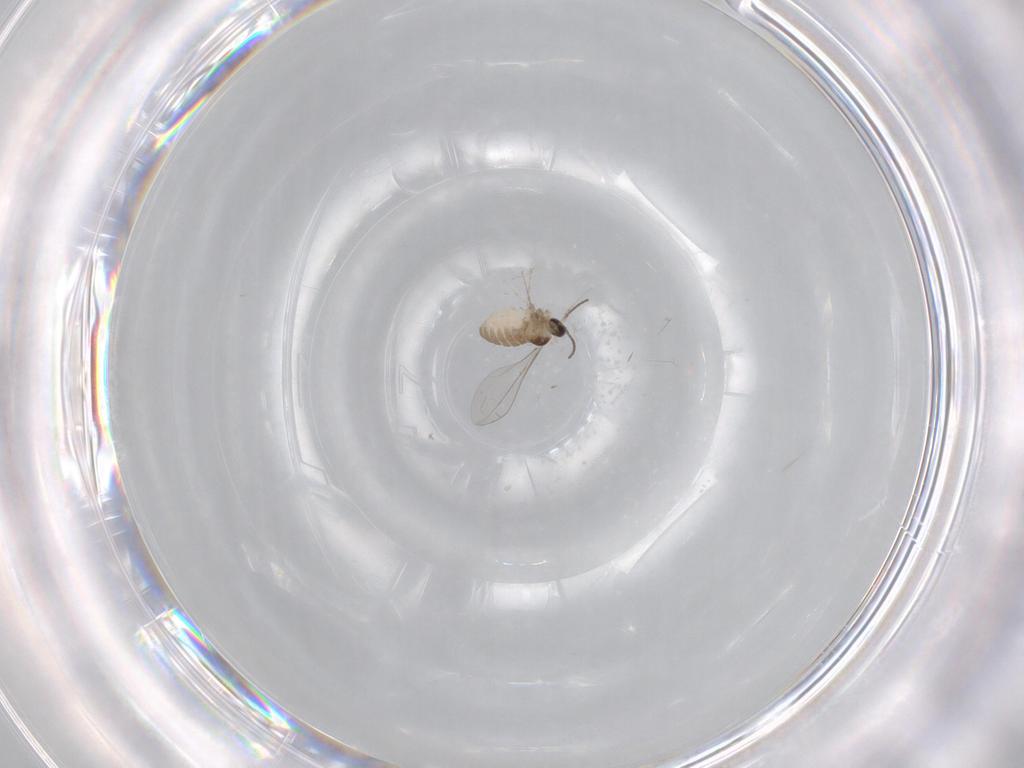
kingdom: Animalia
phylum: Arthropoda
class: Insecta
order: Diptera
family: Cecidomyiidae
